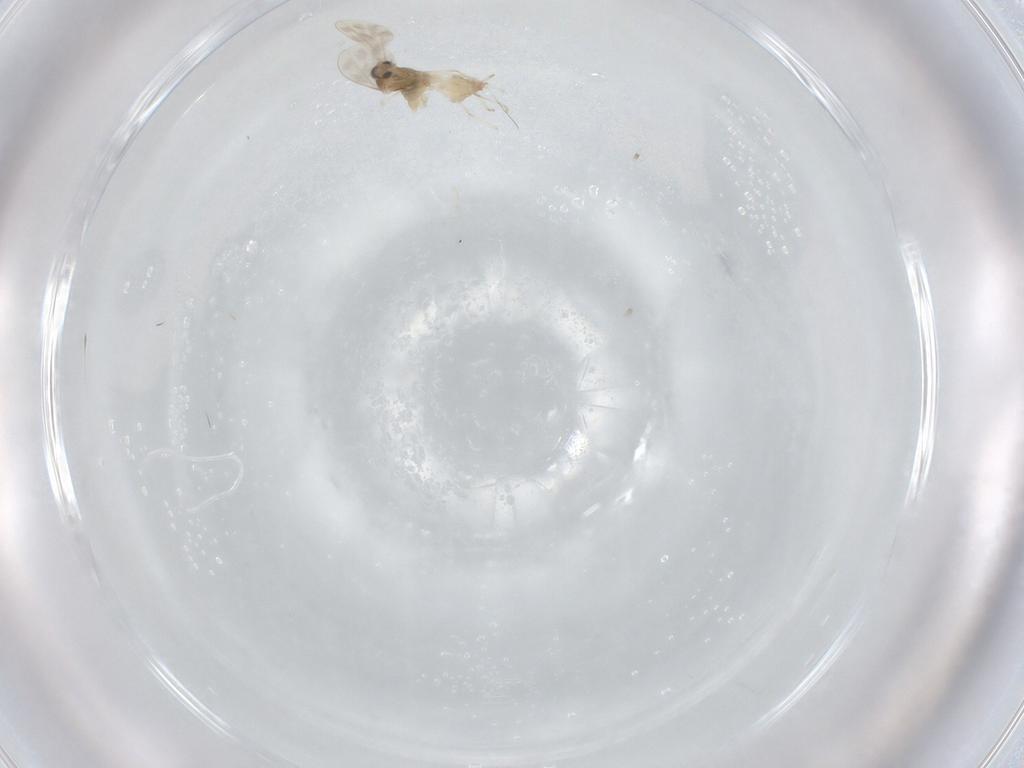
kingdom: Animalia
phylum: Arthropoda
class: Insecta
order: Diptera
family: Cecidomyiidae
